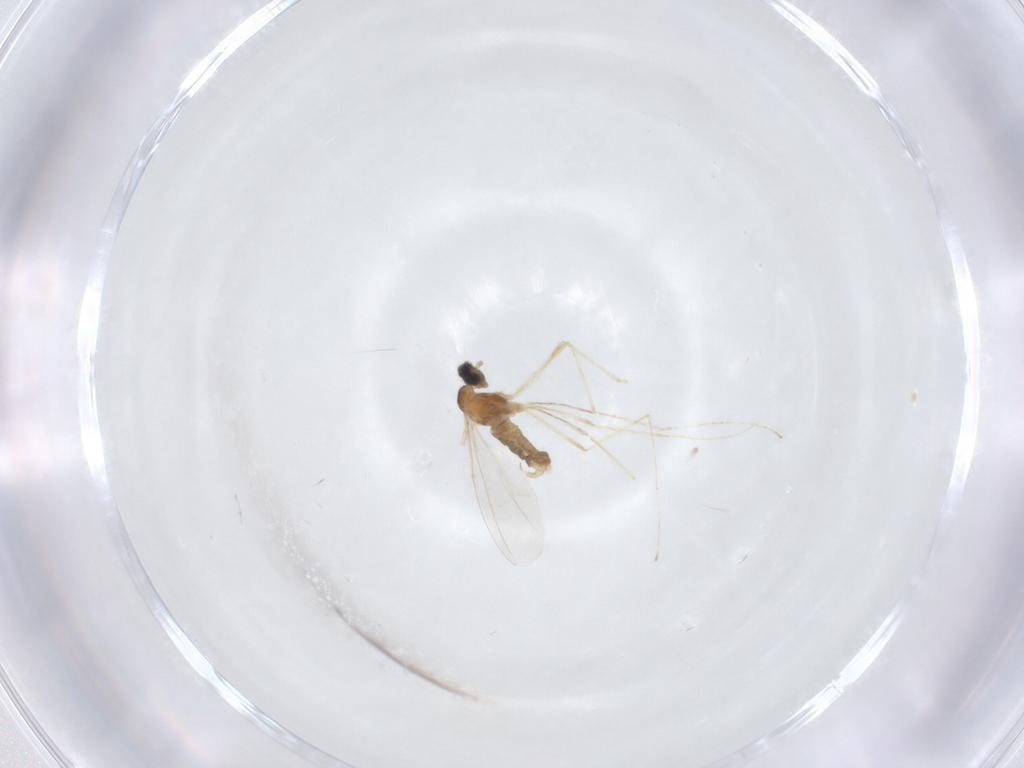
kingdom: Animalia
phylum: Arthropoda
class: Insecta
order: Diptera
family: Cecidomyiidae
